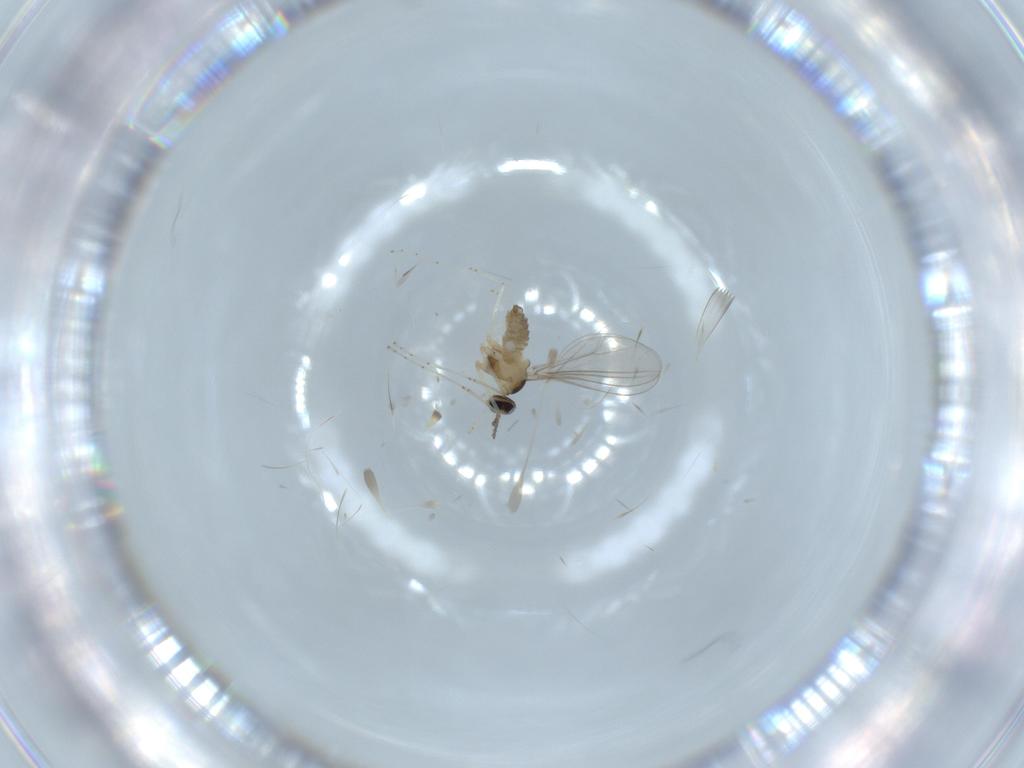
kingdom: Animalia
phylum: Arthropoda
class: Insecta
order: Diptera
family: Cecidomyiidae
